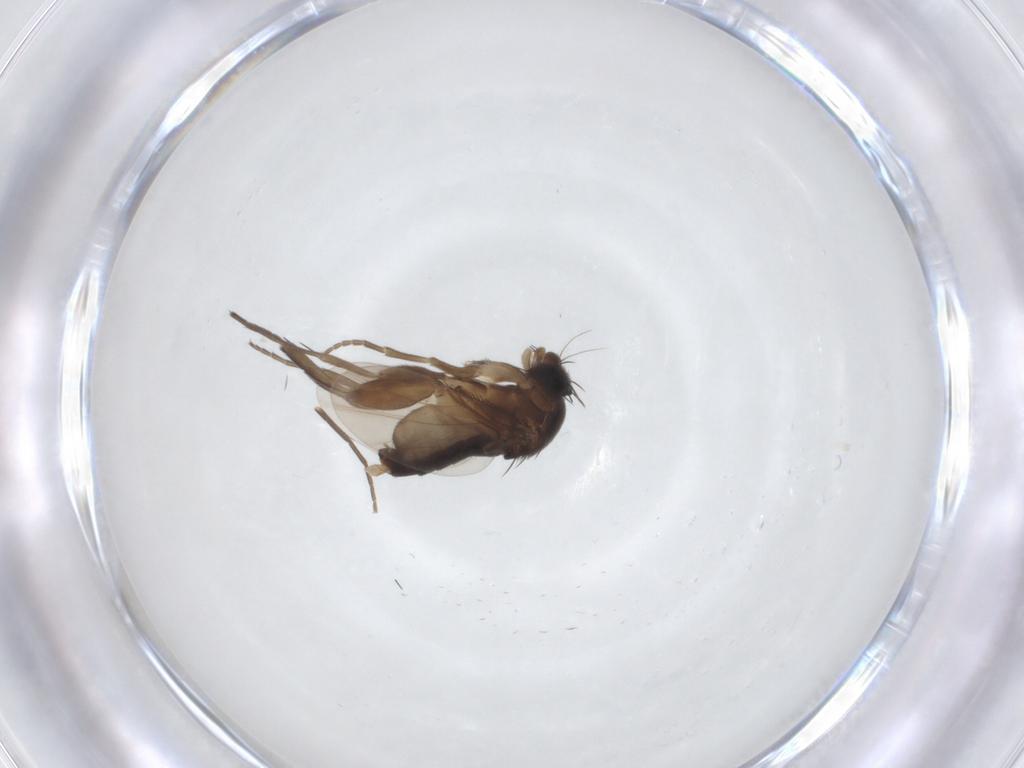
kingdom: Animalia
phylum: Arthropoda
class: Insecta
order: Diptera
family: Phoridae
